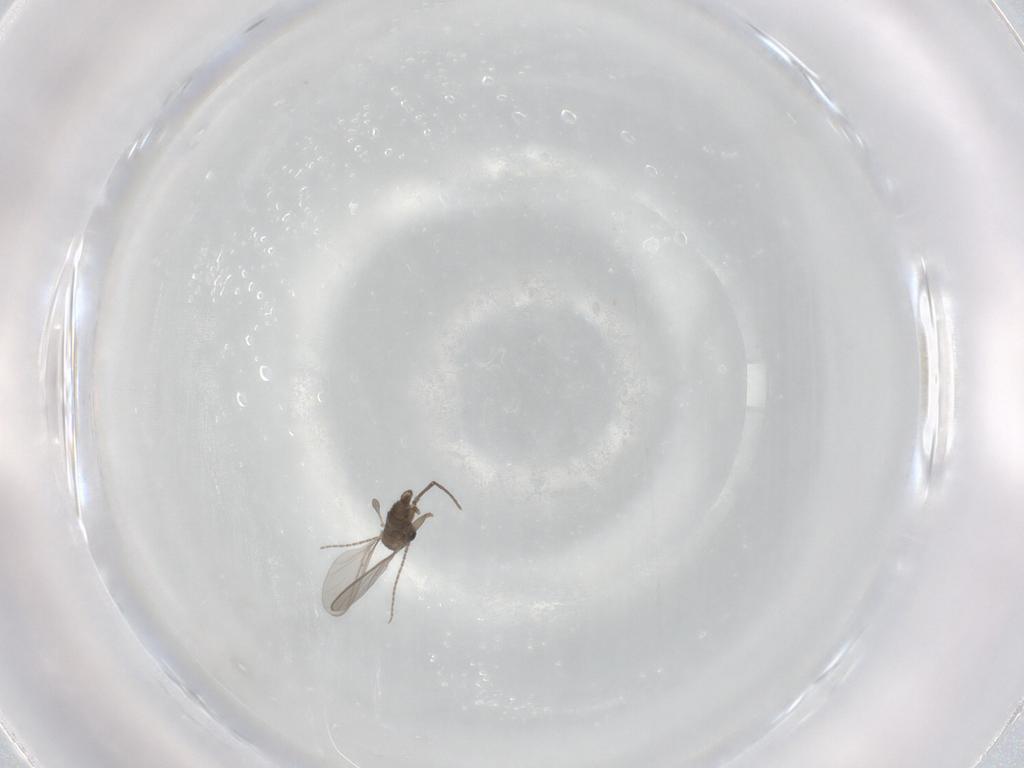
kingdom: Animalia
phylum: Arthropoda
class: Insecta
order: Diptera
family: Sciaridae
